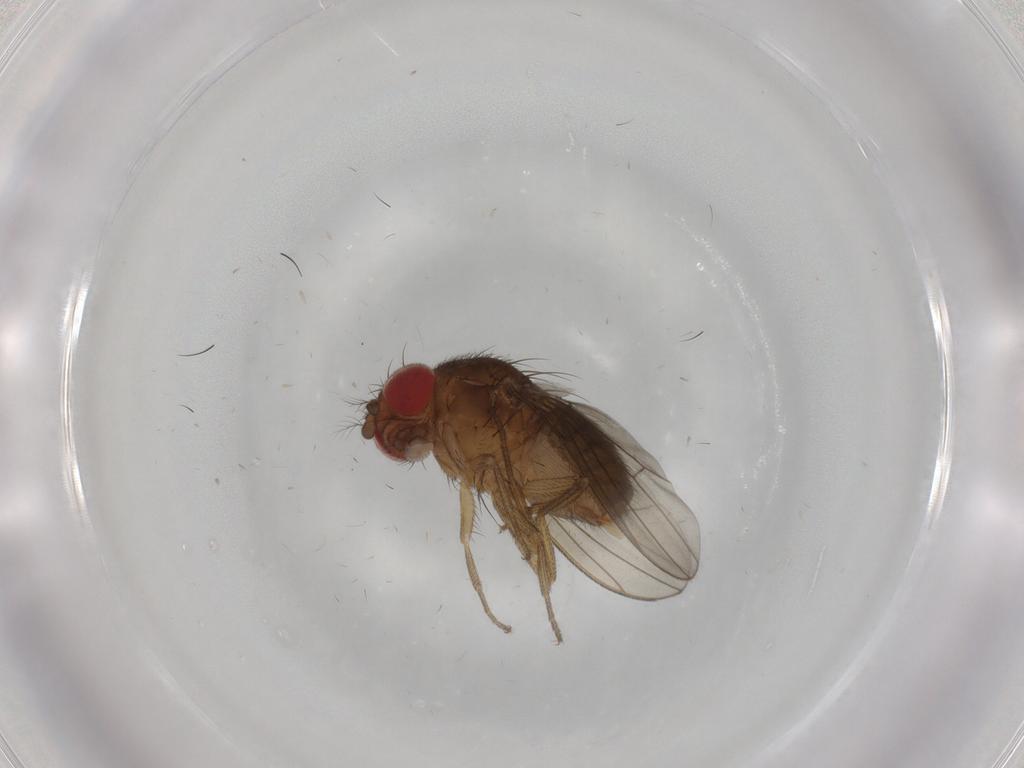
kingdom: Animalia
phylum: Arthropoda
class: Insecta
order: Diptera
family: Drosophilidae
